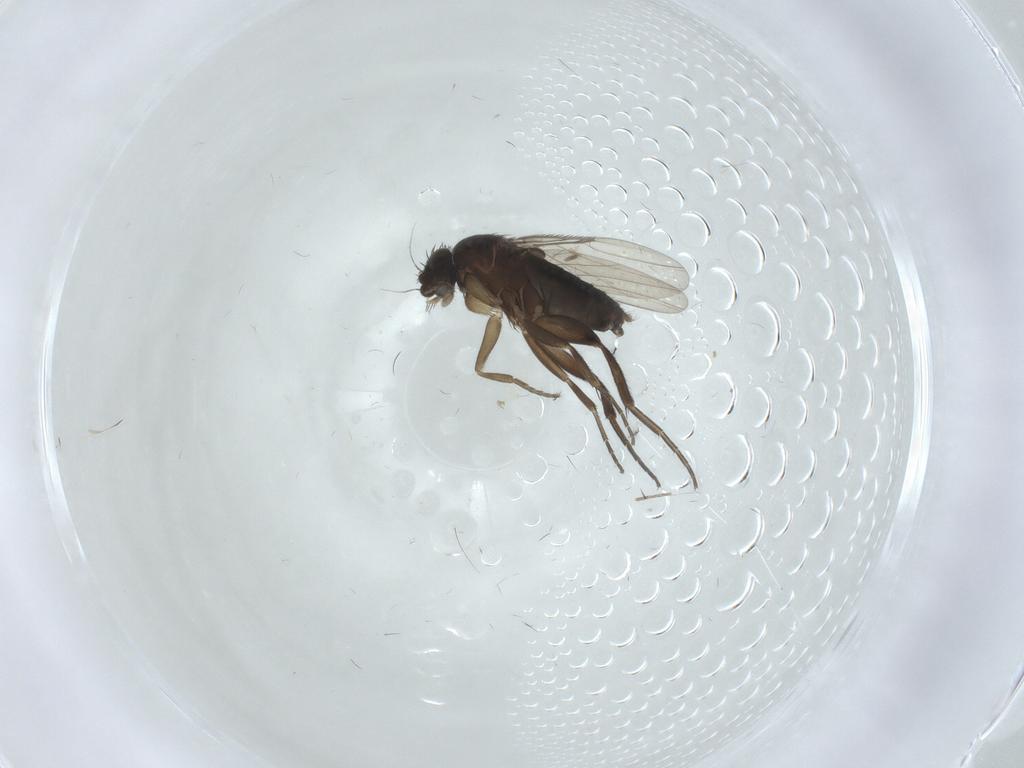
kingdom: Animalia
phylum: Arthropoda
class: Insecta
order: Diptera
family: Phoridae
